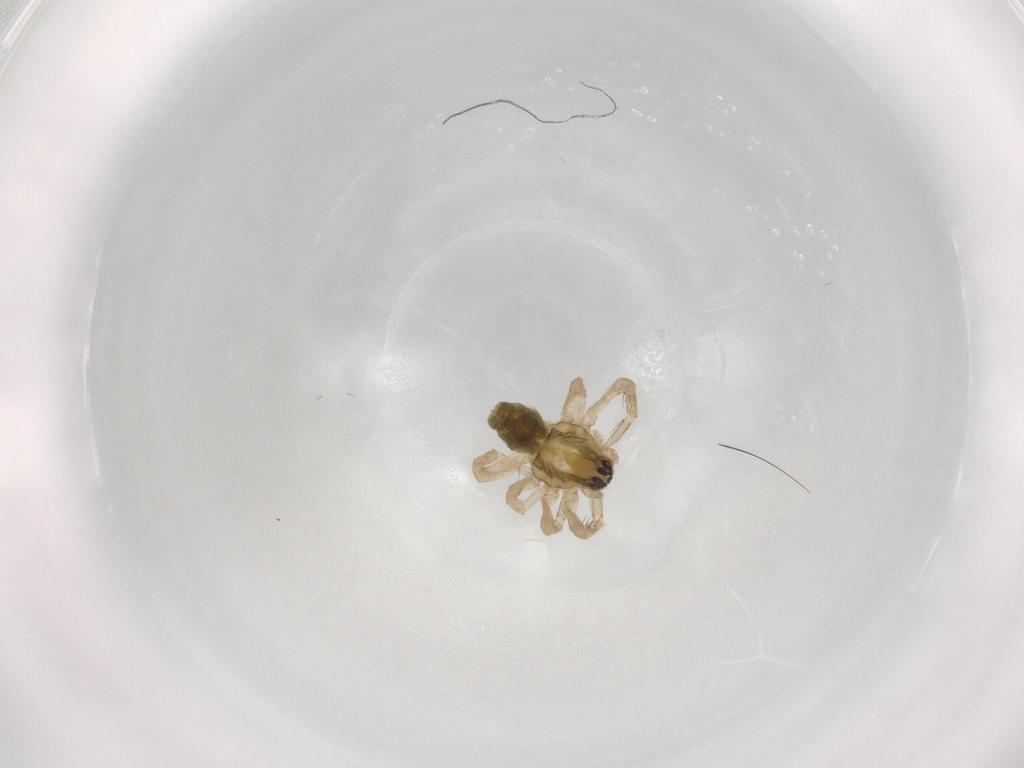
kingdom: Animalia
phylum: Arthropoda
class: Arachnida
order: Araneae
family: Anyphaenidae
